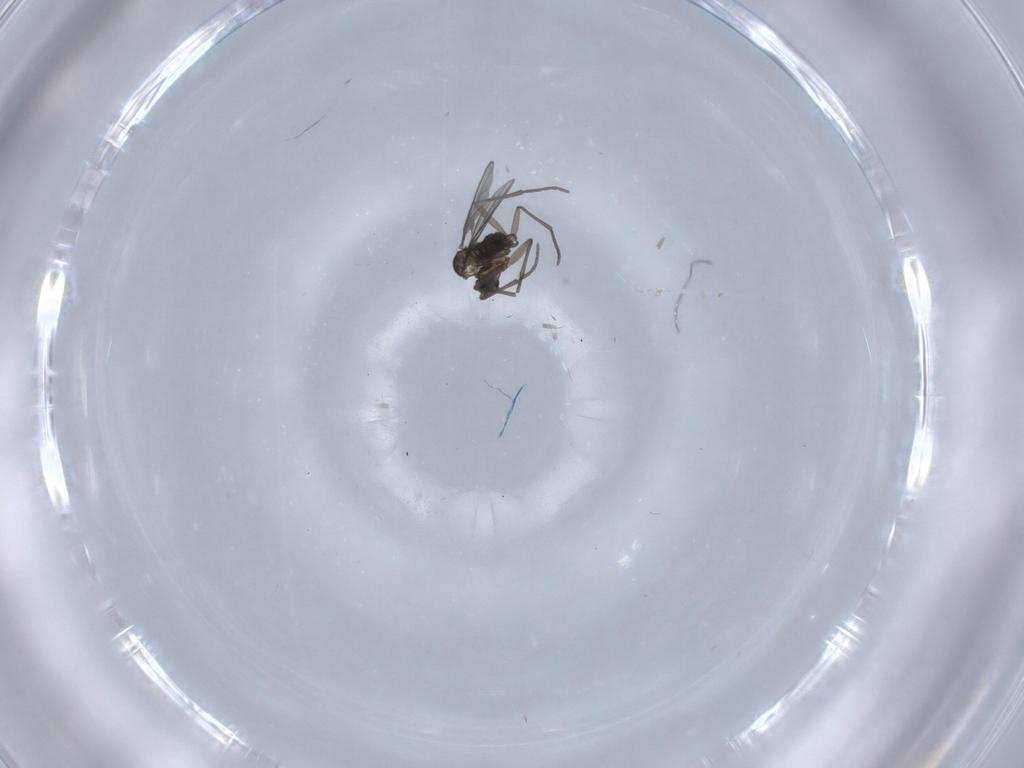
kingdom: Animalia
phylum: Arthropoda
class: Insecta
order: Diptera
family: Sciaridae
